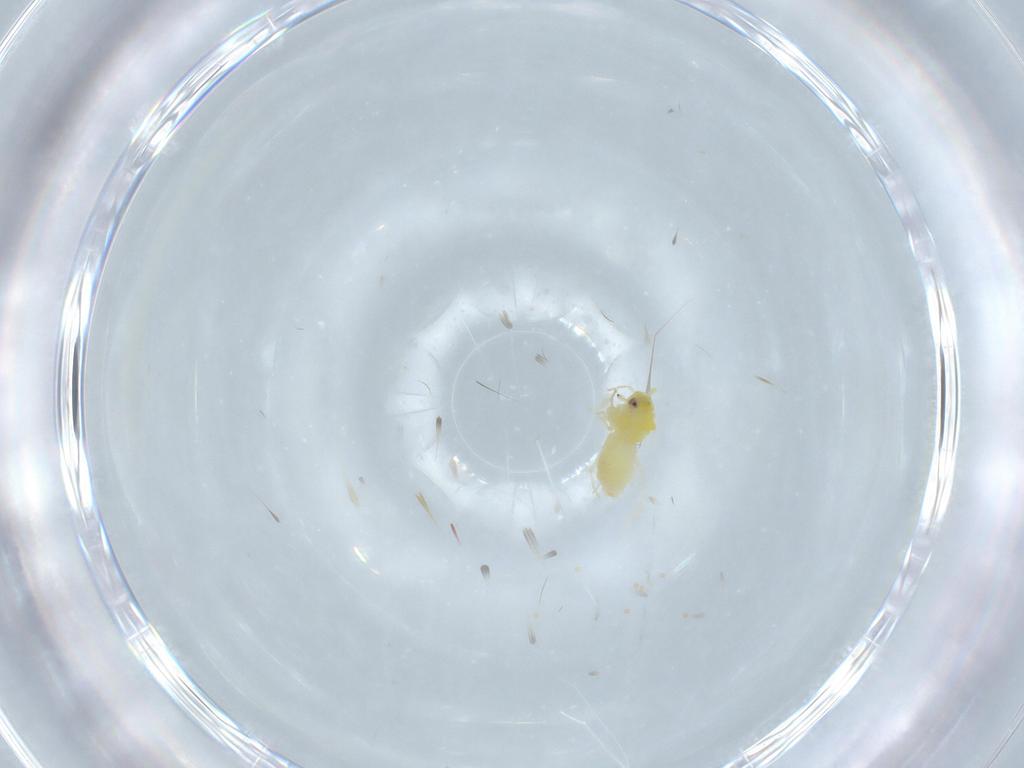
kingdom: Animalia
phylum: Arthropoda
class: Insecta
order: Hemiptera
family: Aleyrodidae
